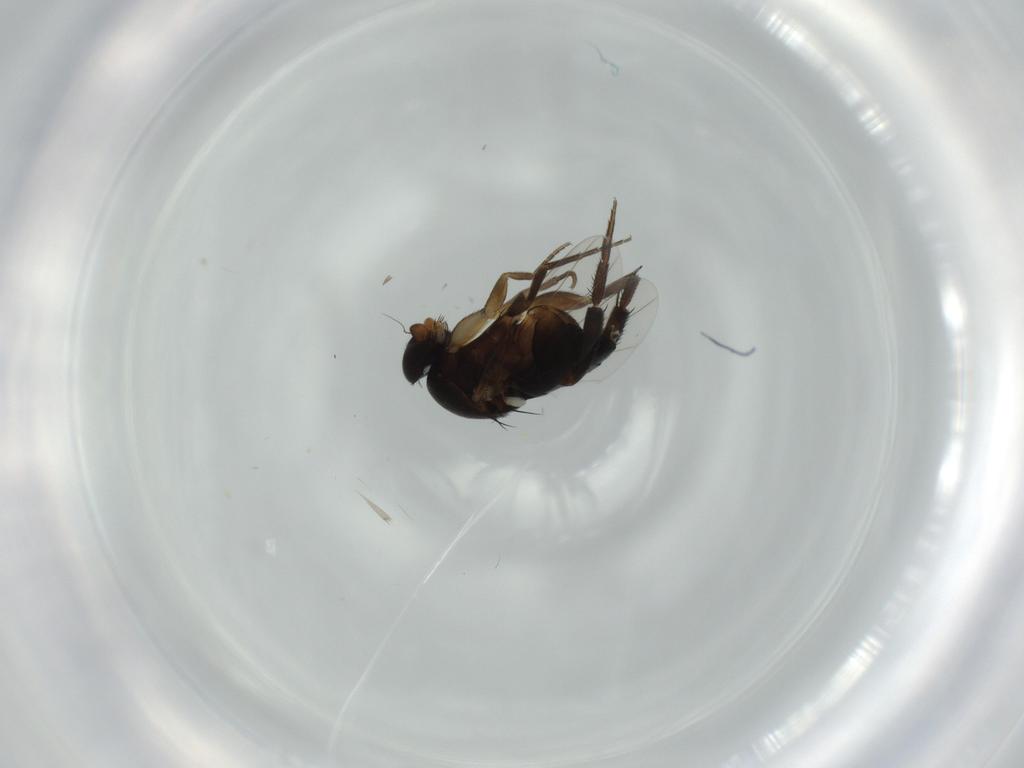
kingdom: Animalia
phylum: Arthropoda
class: Insecta
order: Diptera
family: Phoridae
